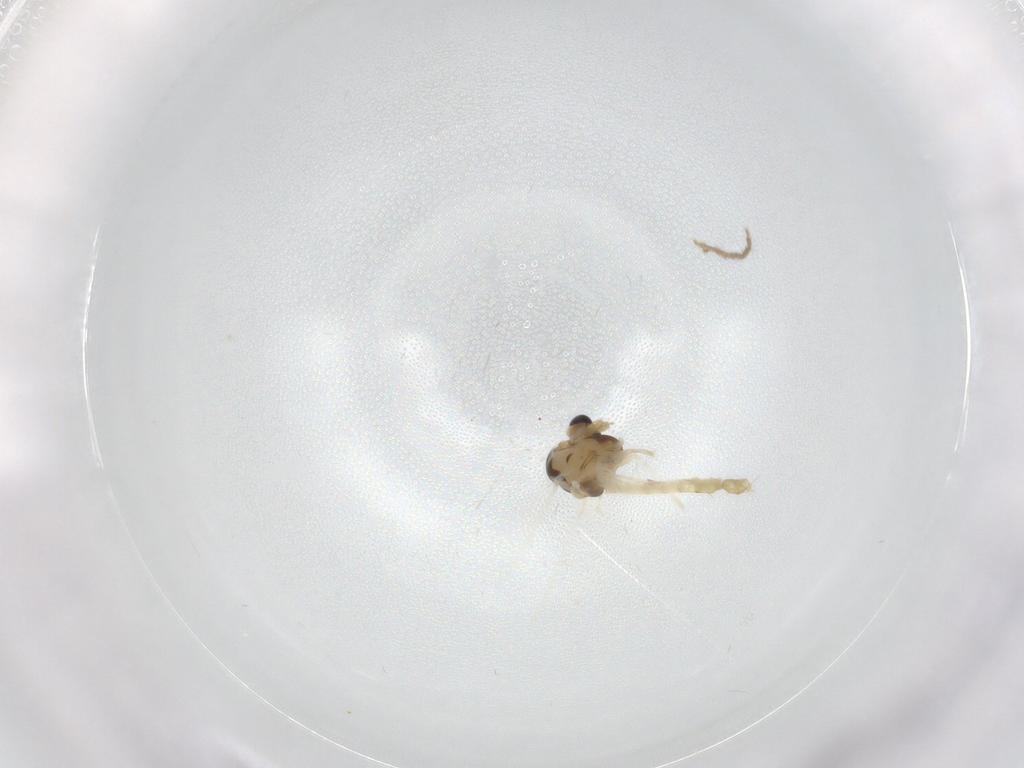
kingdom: Animalia
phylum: Arthropoda
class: Insecta
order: Diptera
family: Chironomidae
